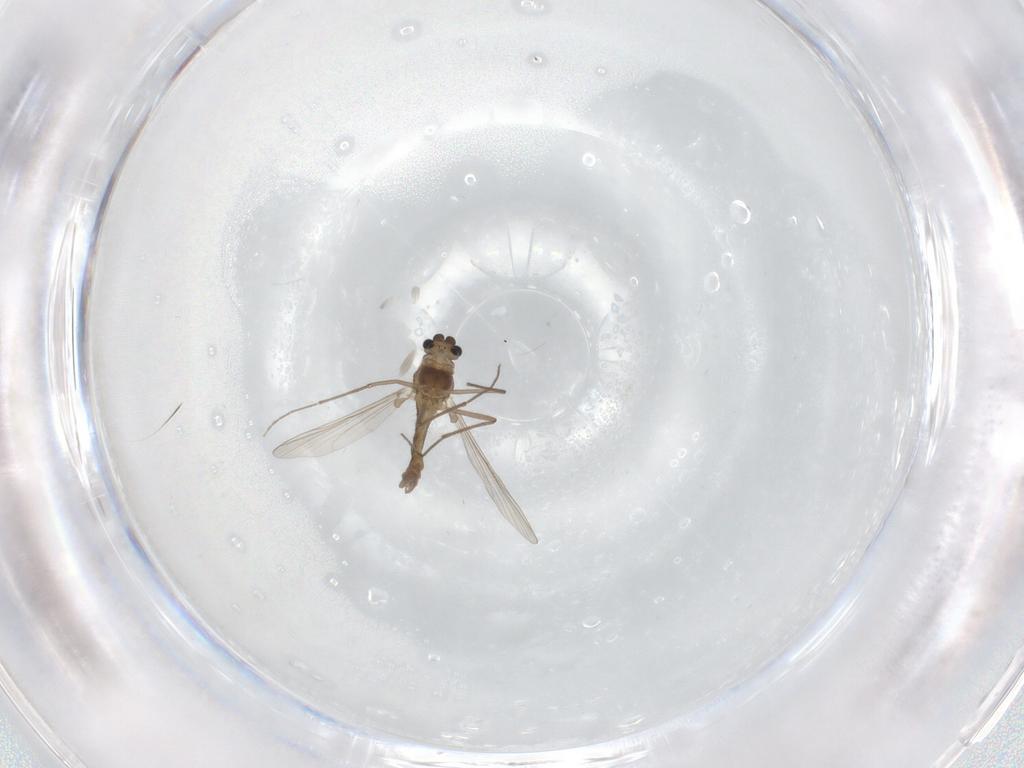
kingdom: Animalia
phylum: Arthropoda
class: Insecta
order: Diptera
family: Chironomidae
